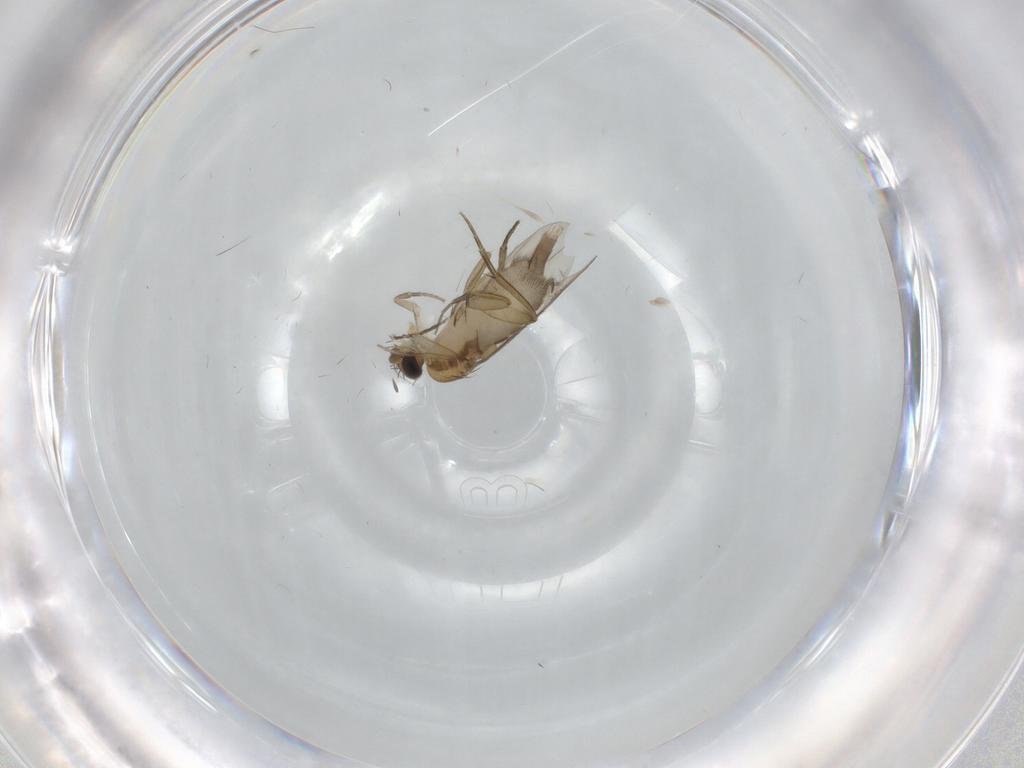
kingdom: Animalia
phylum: Arthropoda
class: Insecta
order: Diptera
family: Phoridae
